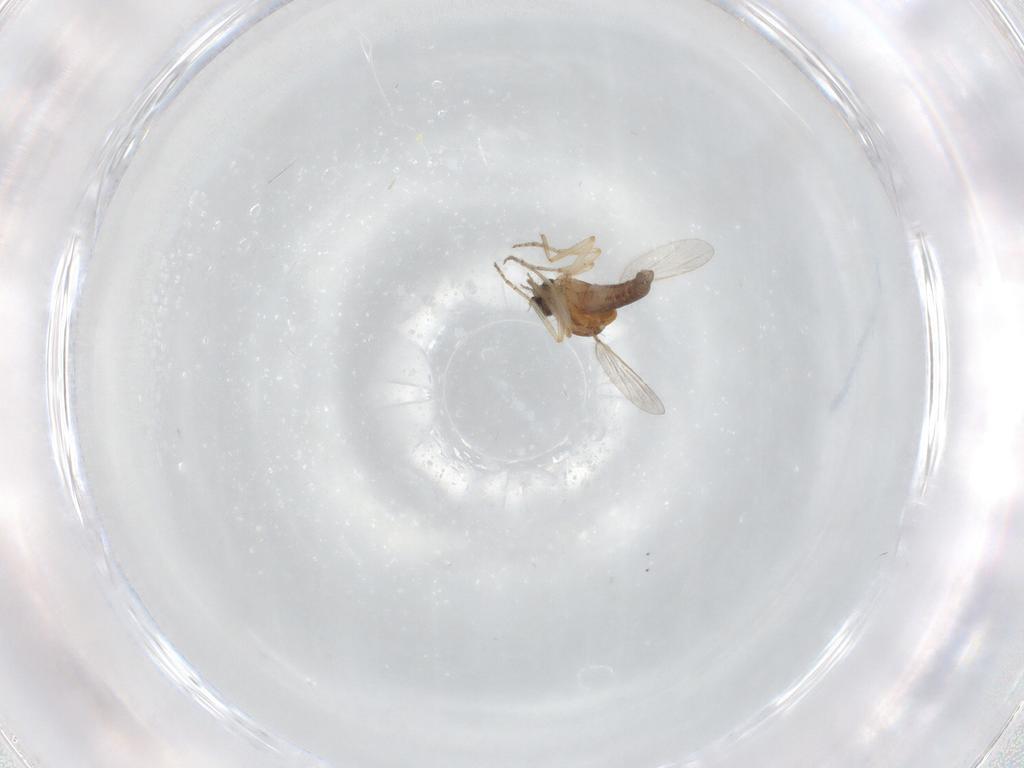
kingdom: Animalia
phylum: Arthropoda
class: Insecta
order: Diptera
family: Ceratopogonidae
